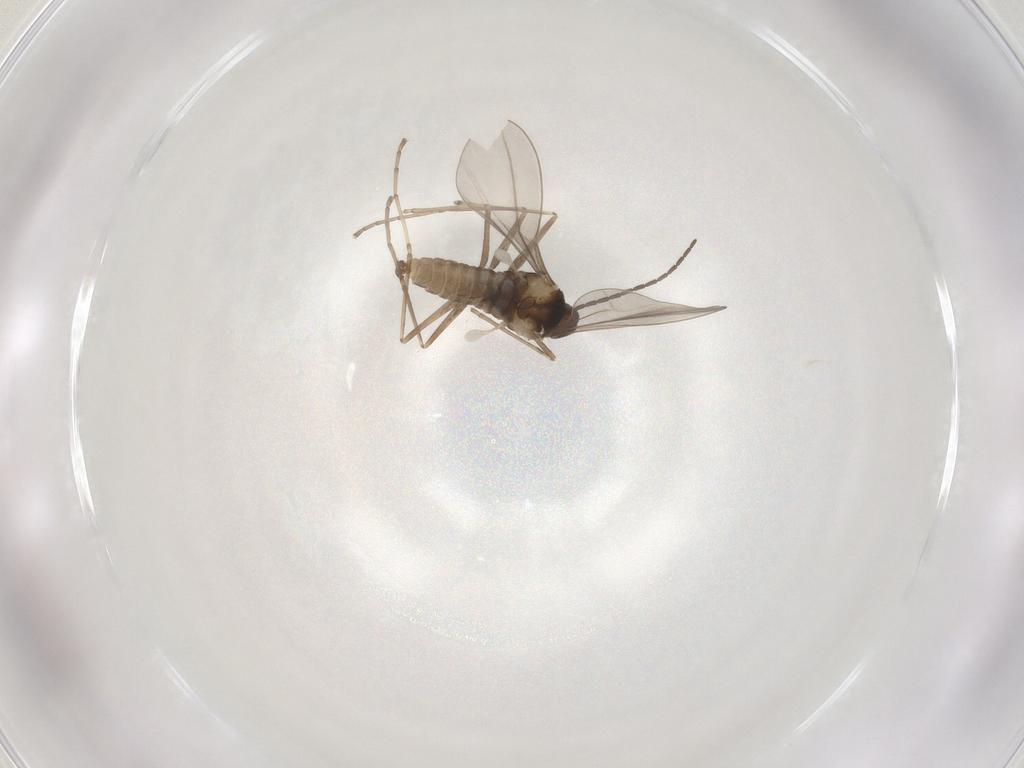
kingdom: Animalia
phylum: Arthropoda
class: Insecta
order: Diptera
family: Cecidomyiidae
